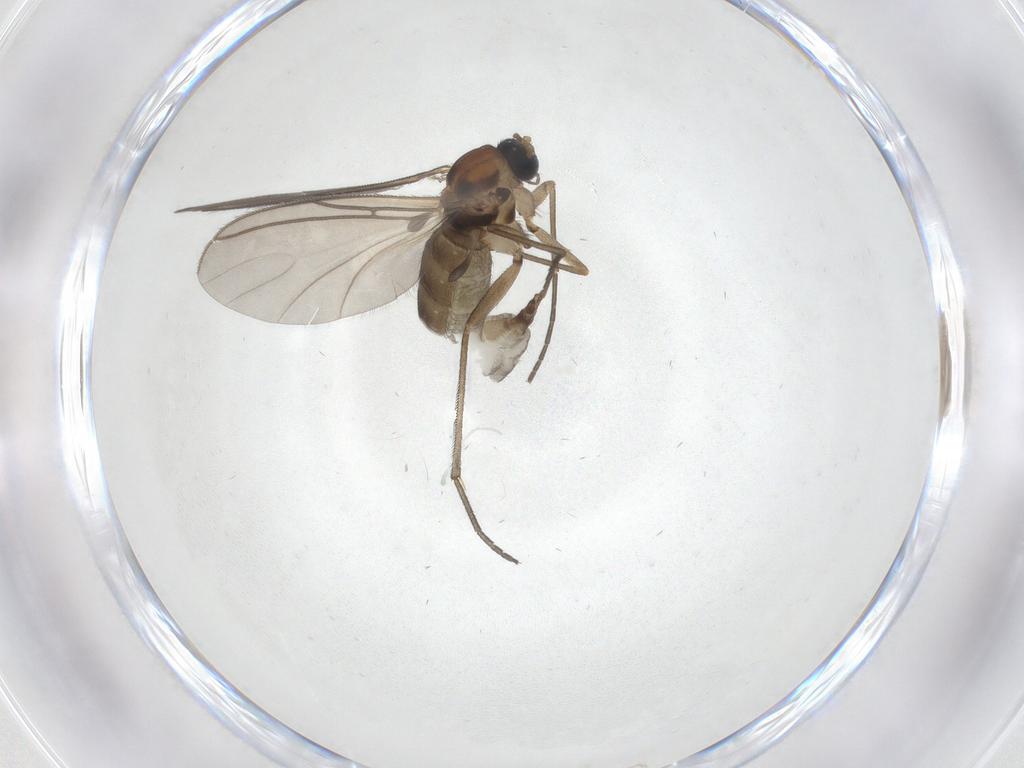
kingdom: Animalia
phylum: Arthropoda
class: Insecta
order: Diptera
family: Sciaridae
